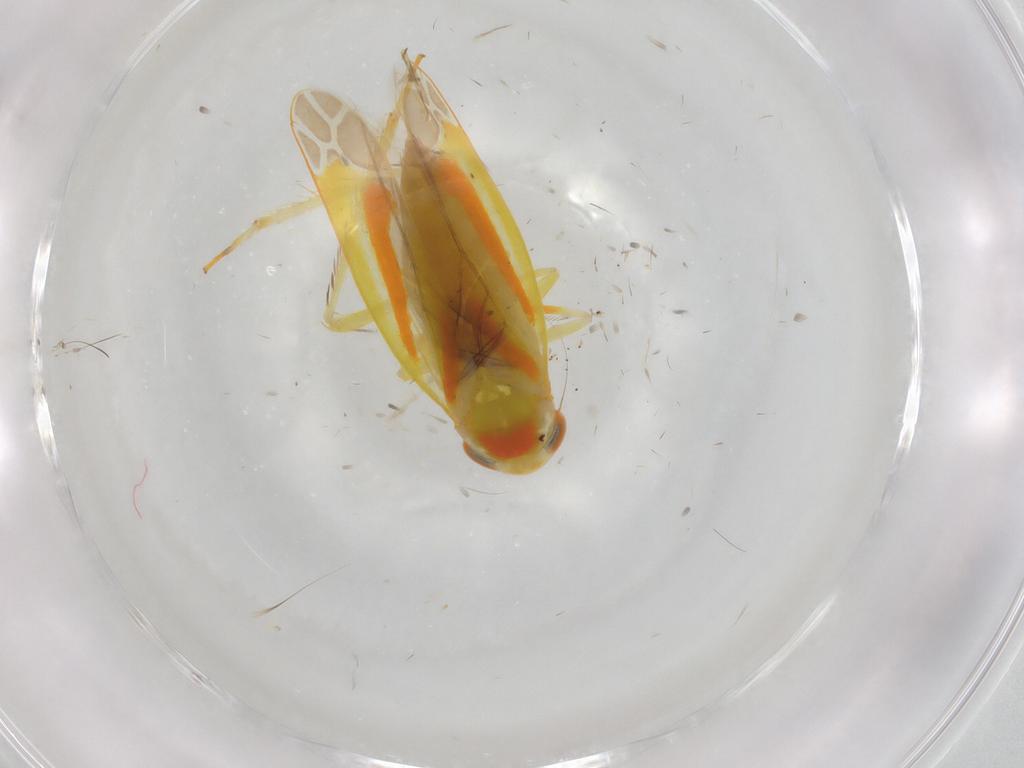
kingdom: Animalia
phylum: Arthropoda
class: Insecta
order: Hemiptera
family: Cicadellidae
